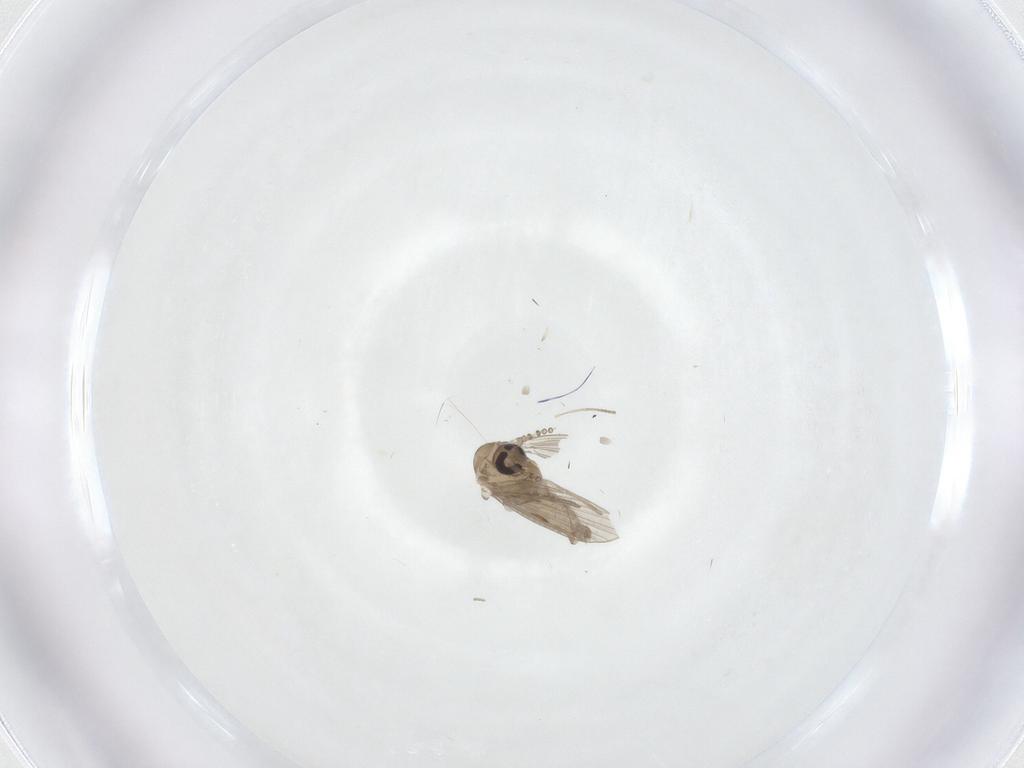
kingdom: Animalia
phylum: Arthropoda
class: Insecta
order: Diptera
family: Psychodidae
